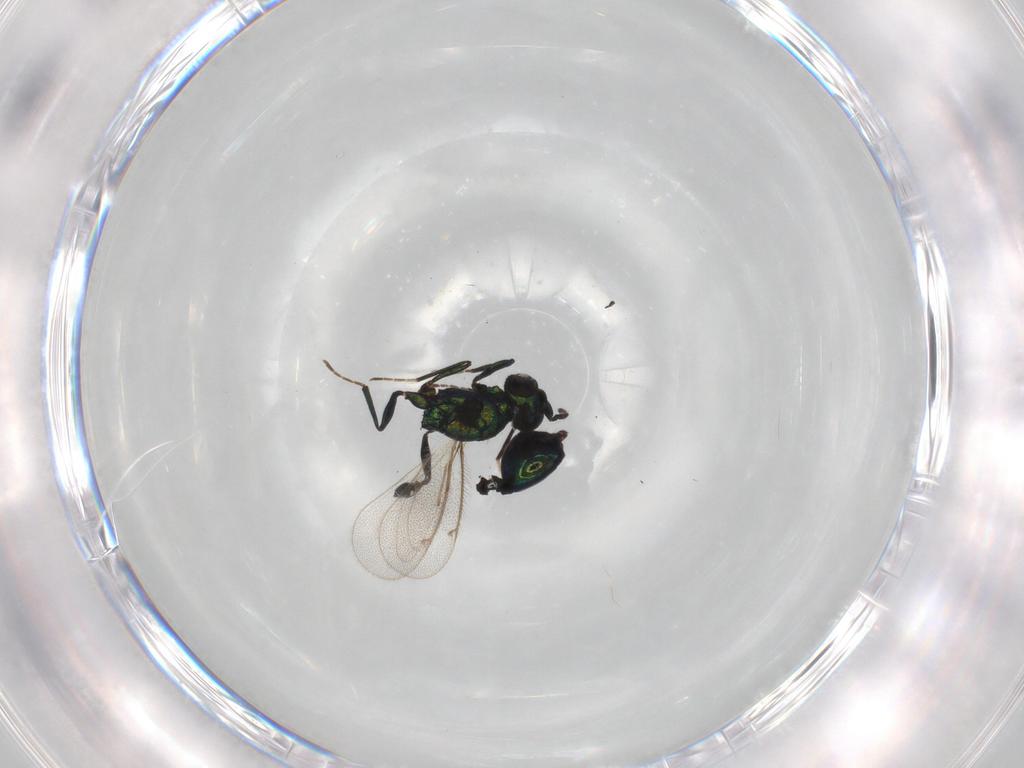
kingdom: Animalia
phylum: Arthropoda
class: Insecta
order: Hymenoptera
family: Eulophidae
